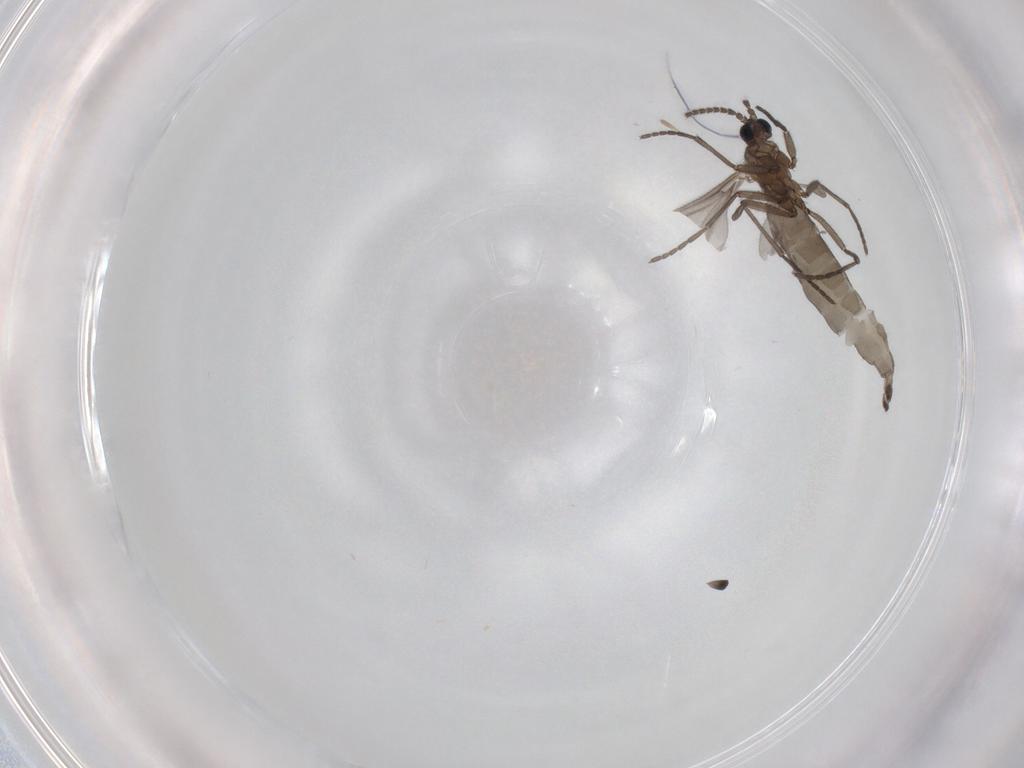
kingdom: Animalia
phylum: Arthropoda
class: Insecta
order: Diptera
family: Sciaridae
